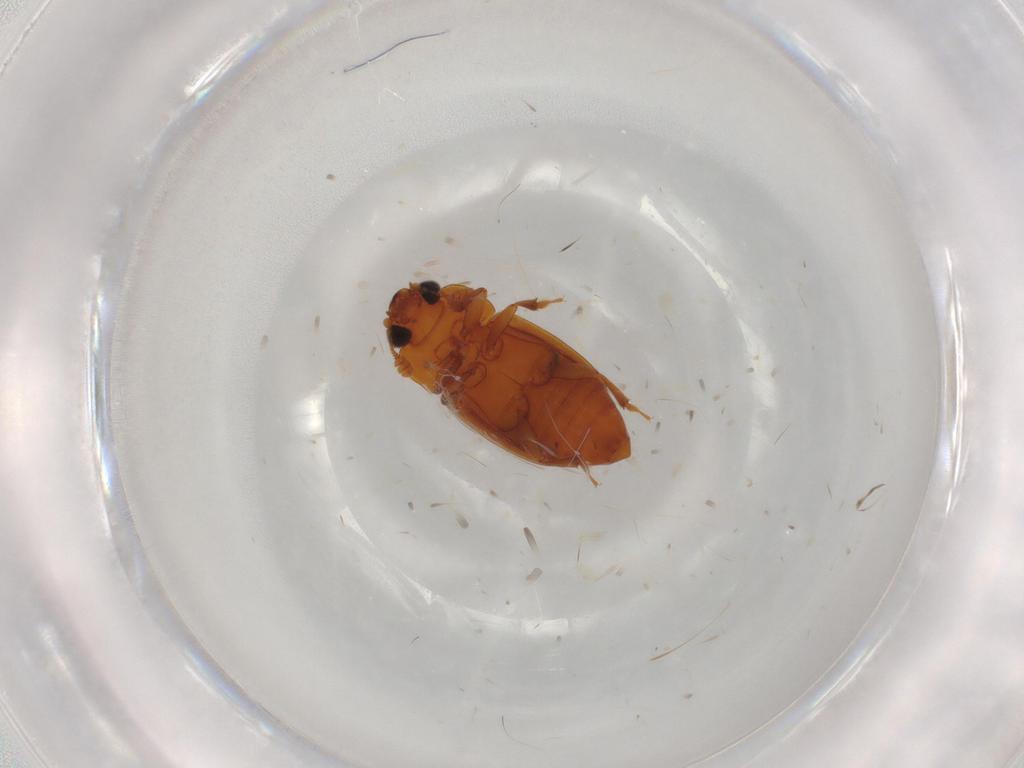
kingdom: Animalia
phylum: Arthropoda
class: Insecta
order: Coleoptera
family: Nitidulidae
